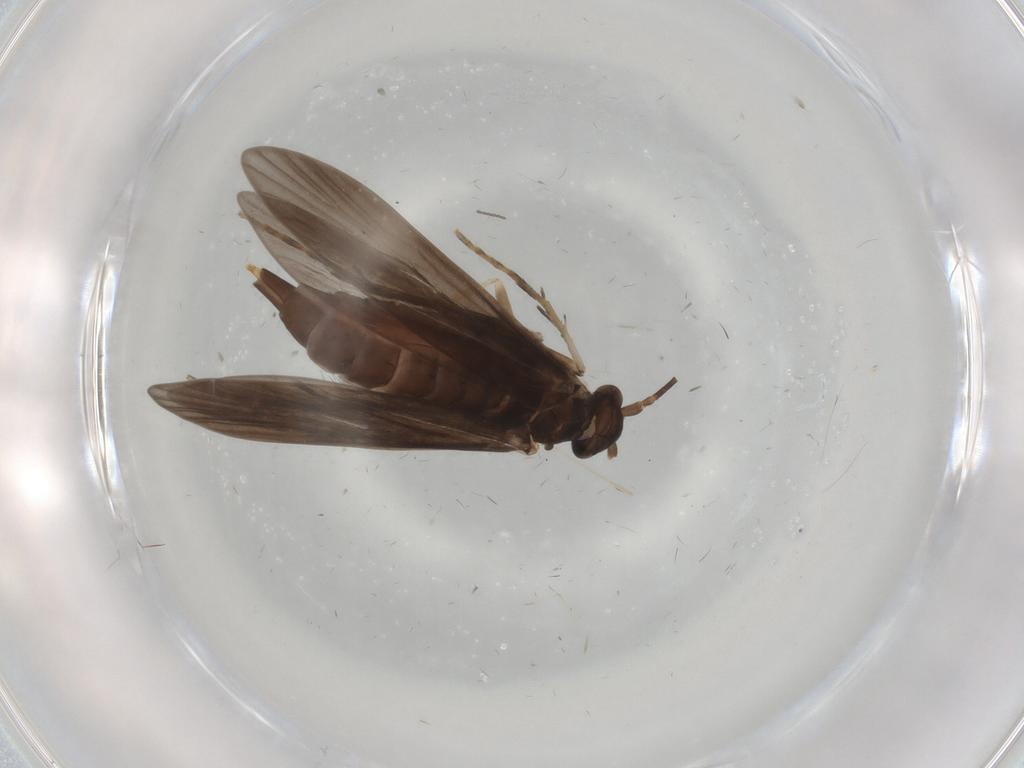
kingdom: Animalia
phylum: Arthropoda
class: Insecta
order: Trichoptera
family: Xiphocentronidae
